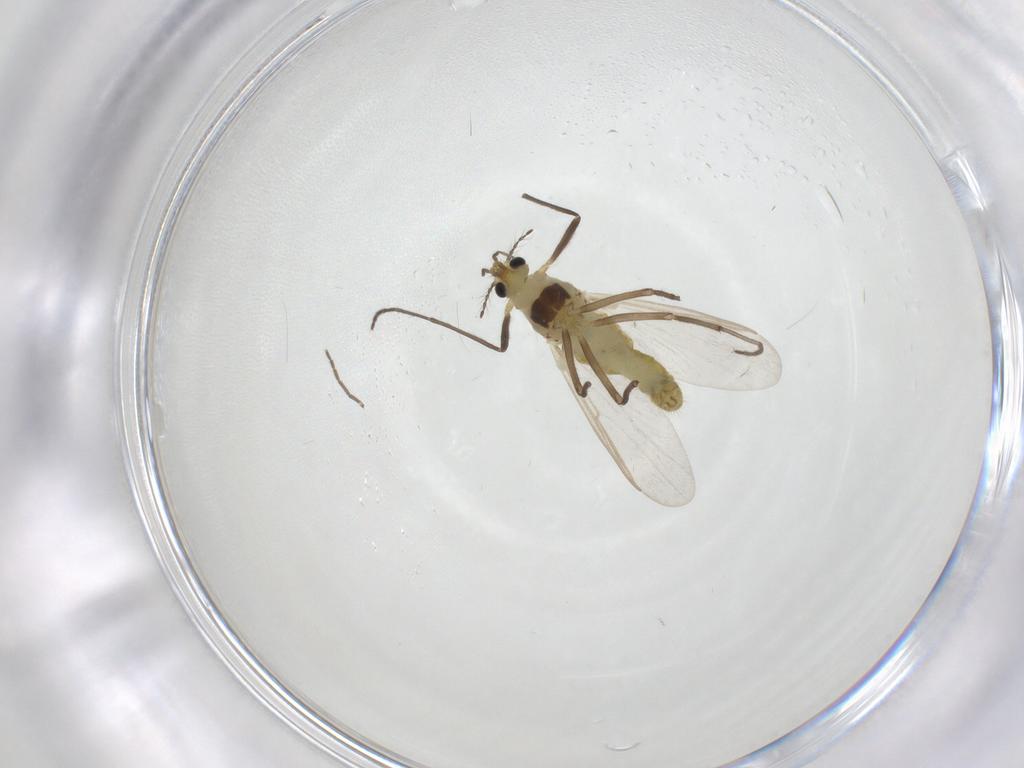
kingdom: Animalia
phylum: Arthropoda
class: Insecta
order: Diptera
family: Chironomidae
